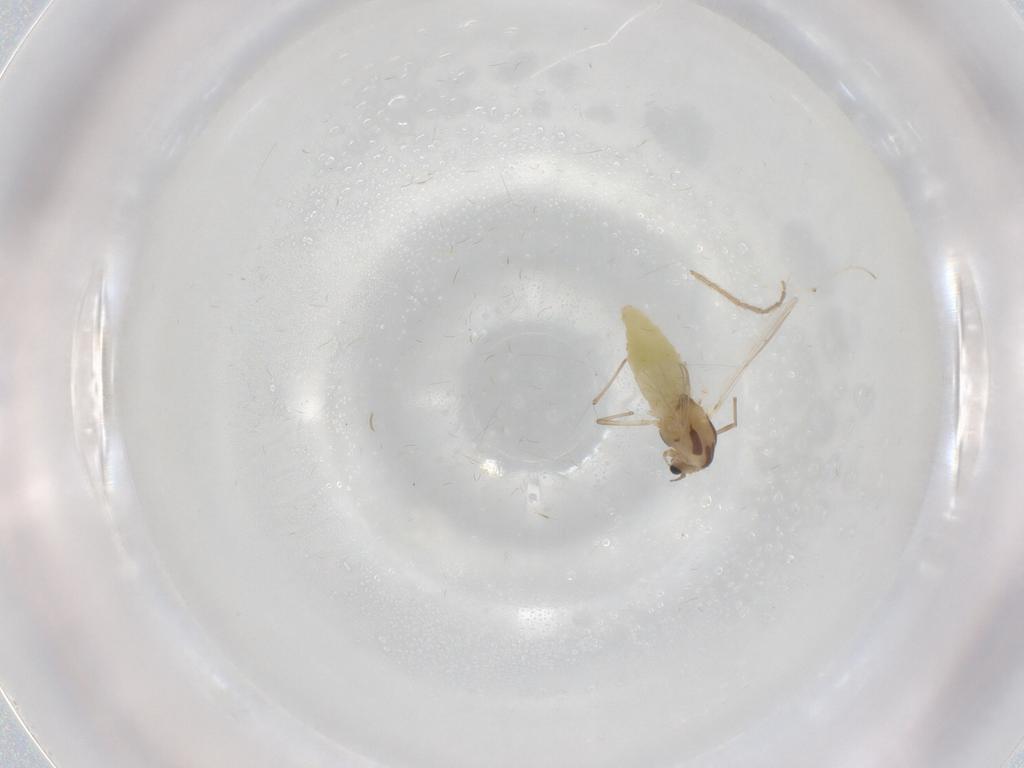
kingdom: Animalia
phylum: Arthropoda
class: Insecta
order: Diptera
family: Chironomidae
